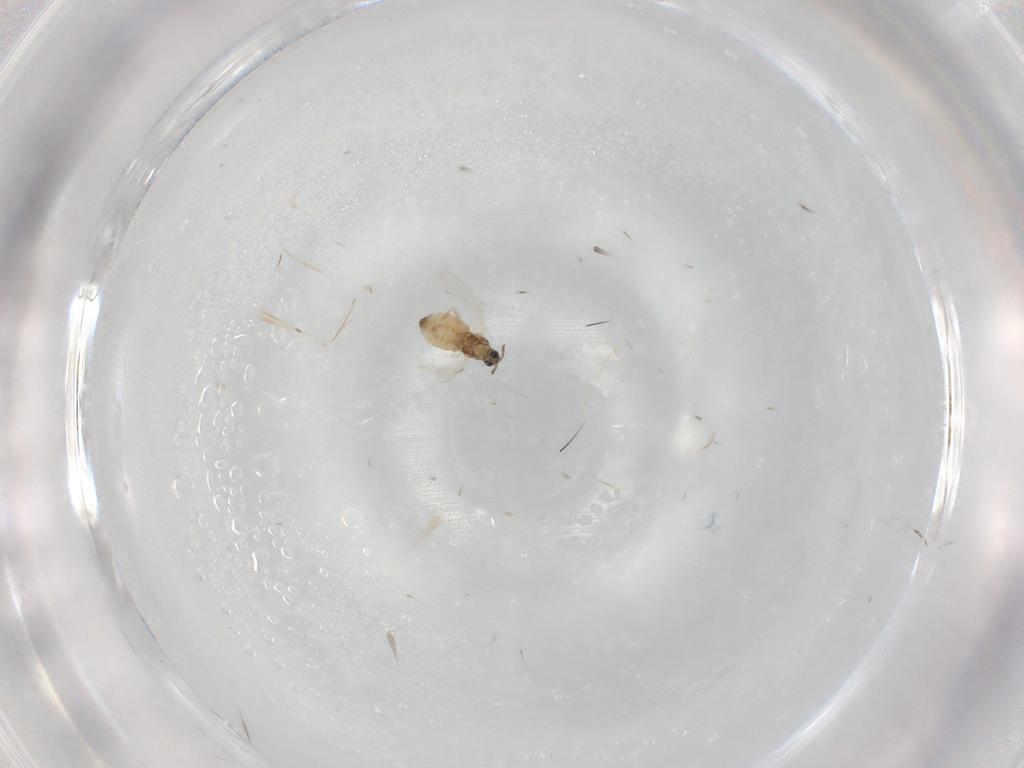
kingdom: Animalia
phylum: Arthropoda
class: Insecta
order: Diptera
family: Cecidomyiidae
